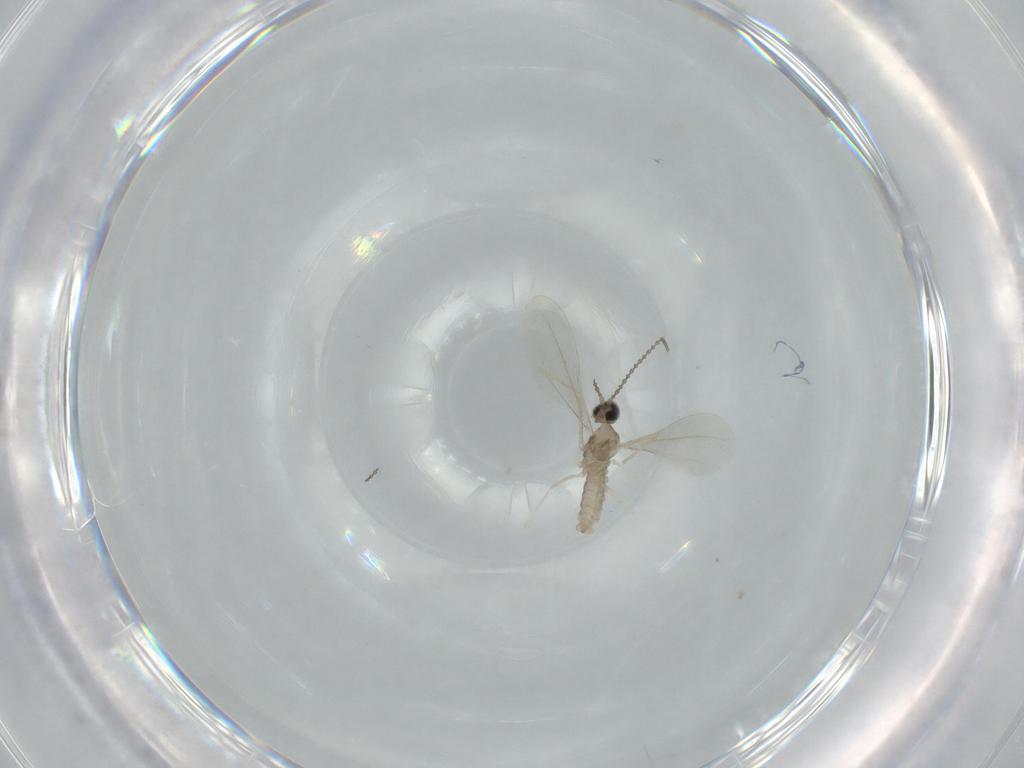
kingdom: Animalia
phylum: Arthropoda
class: Insecta
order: Diptera
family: Cecidomyiidae
